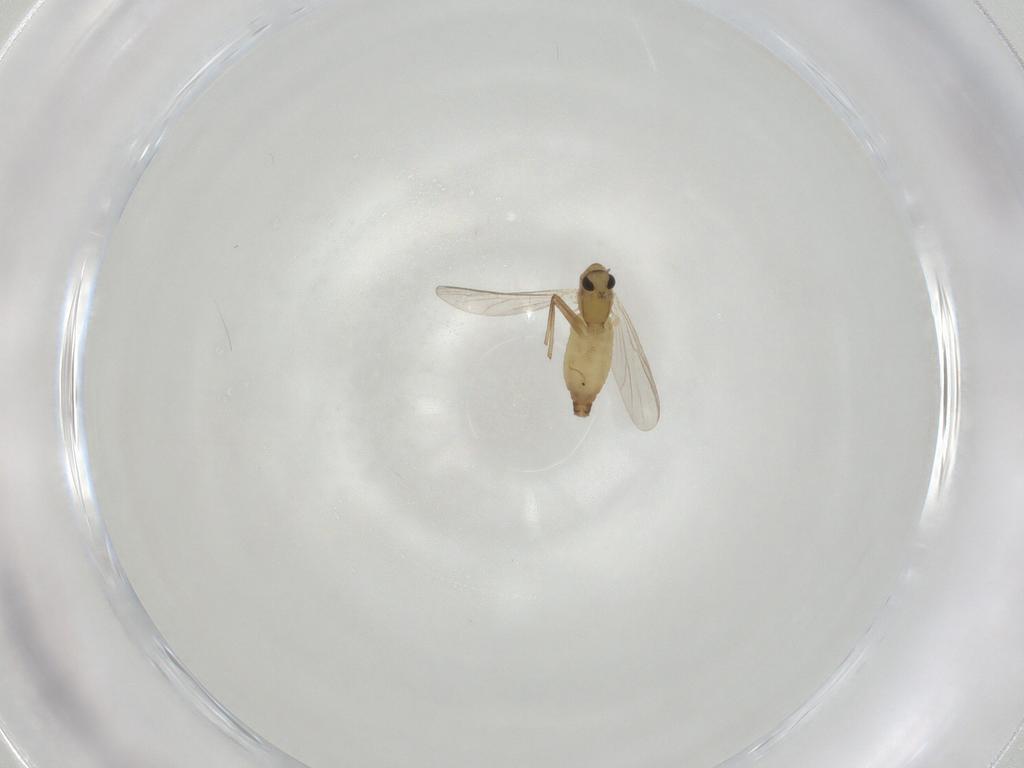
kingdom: Animalia
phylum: Arthropoda
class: Insecta
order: Diptera
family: Chironomidae
